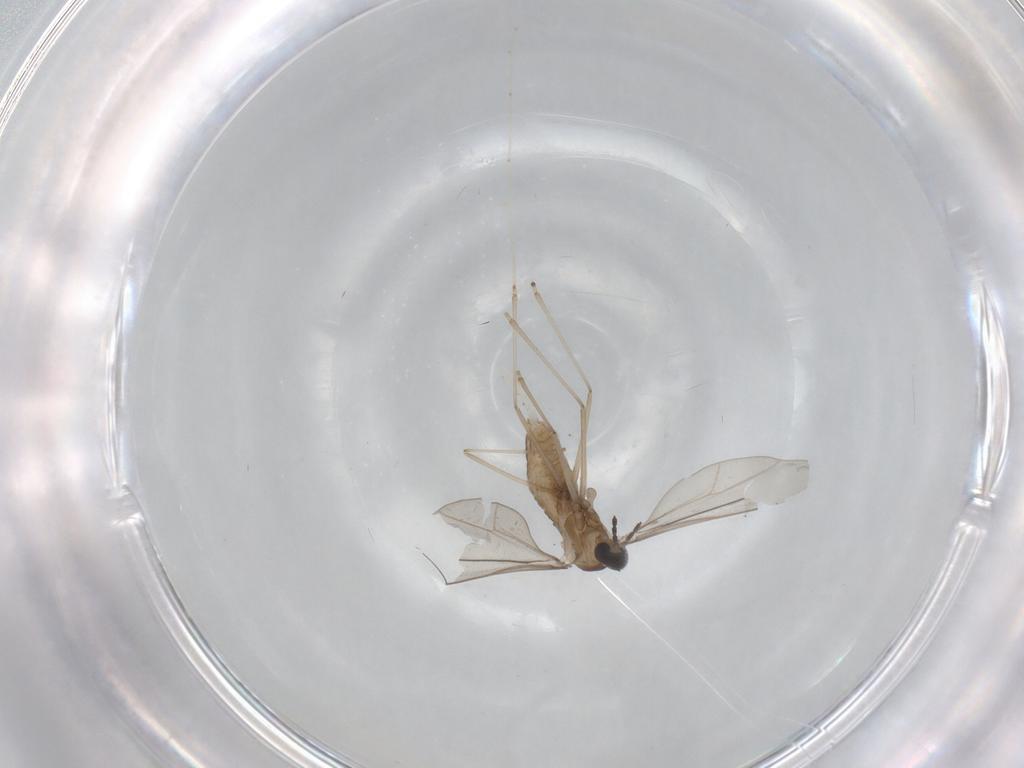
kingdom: Animalia
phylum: Arthropoda
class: Insecta
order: Diptera
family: Cecidomyiidae
